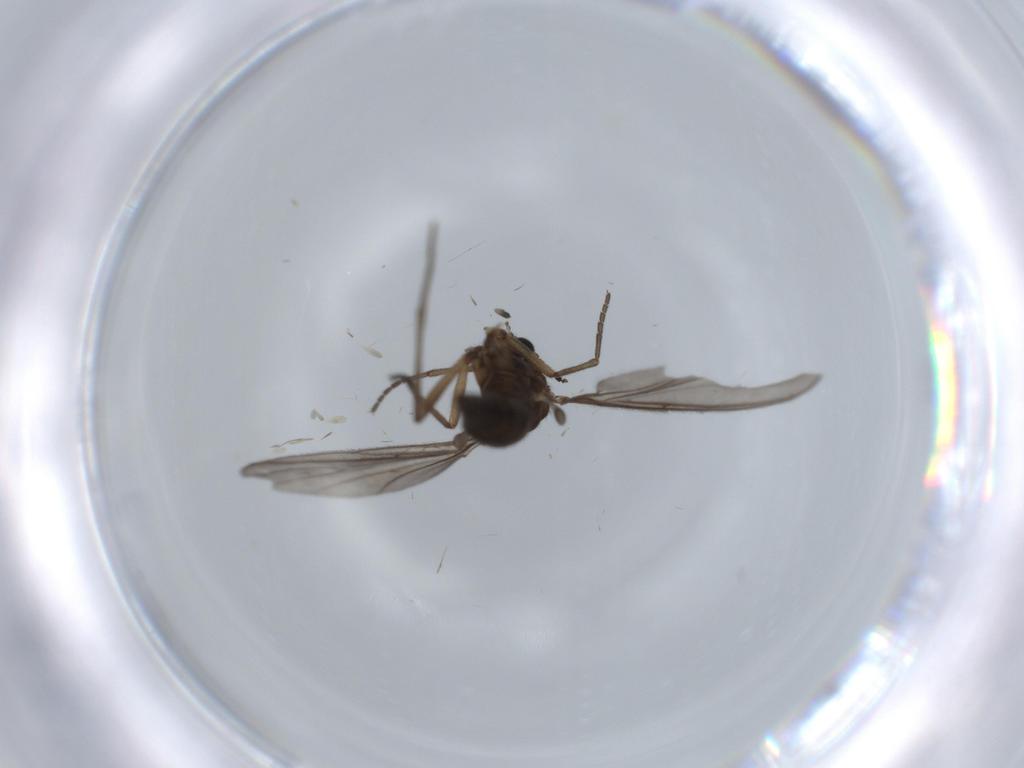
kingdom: Animalia
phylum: Arthropoda
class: Insecta
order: Diptera
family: Sciaridae
